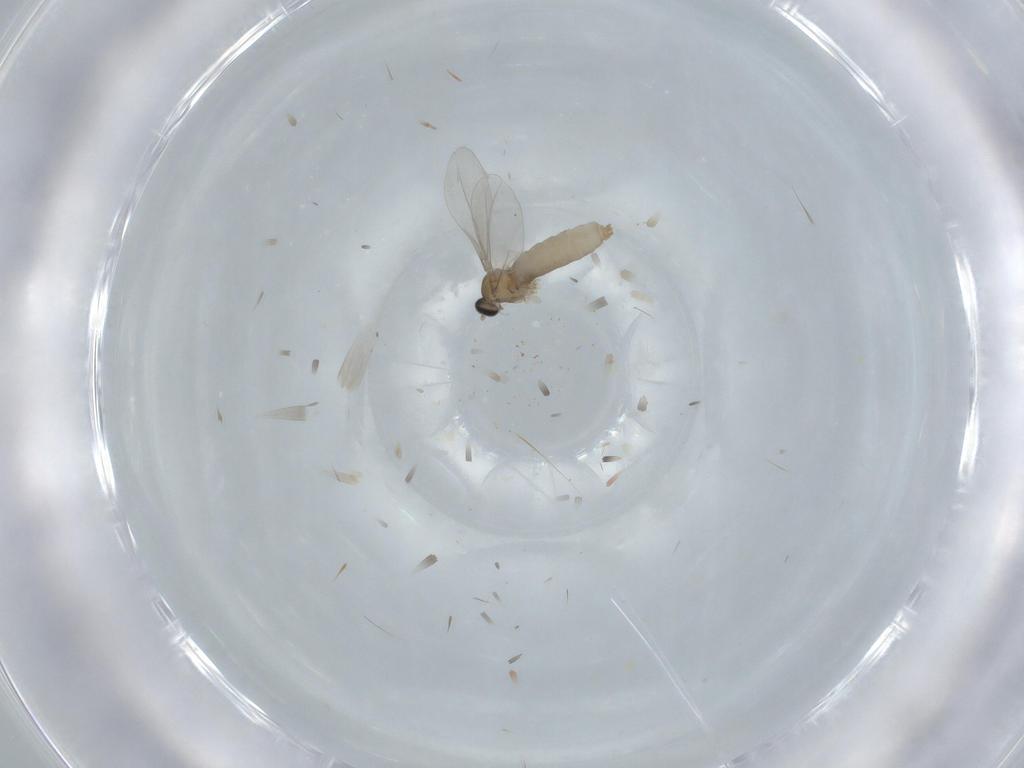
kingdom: Animalia
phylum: Arthropoda
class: Insecta
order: Diptera
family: Cecidomyiidae
